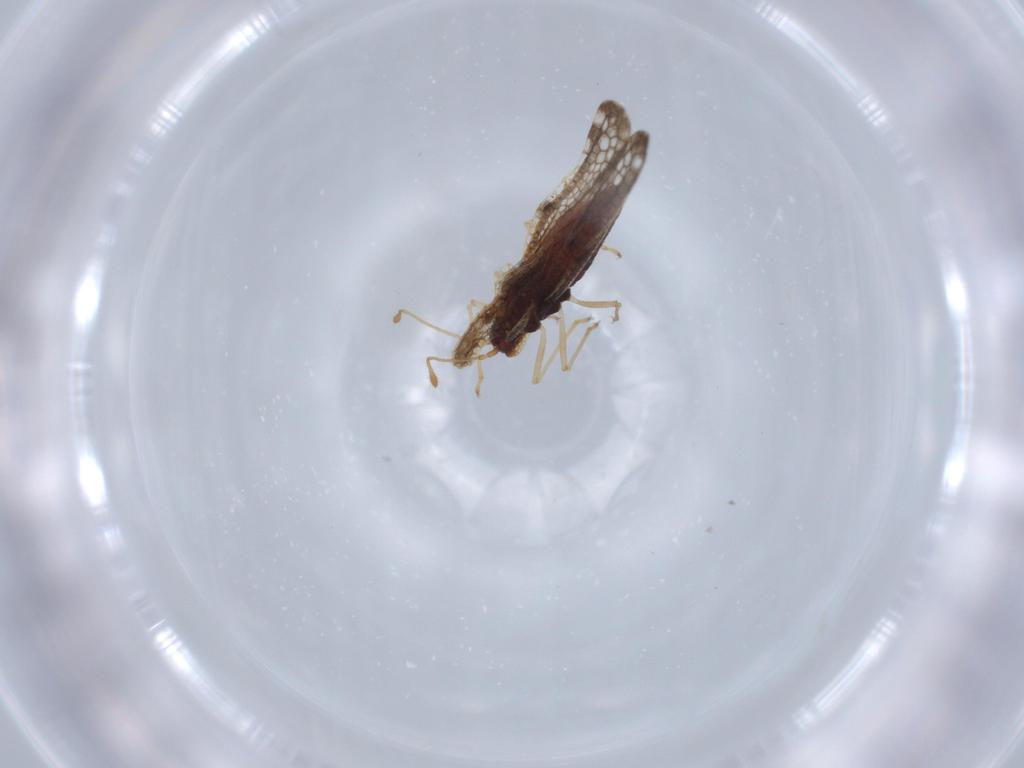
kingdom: Animalia
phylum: Arthropoda
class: Insecta
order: Hemiptera
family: Tingidae
